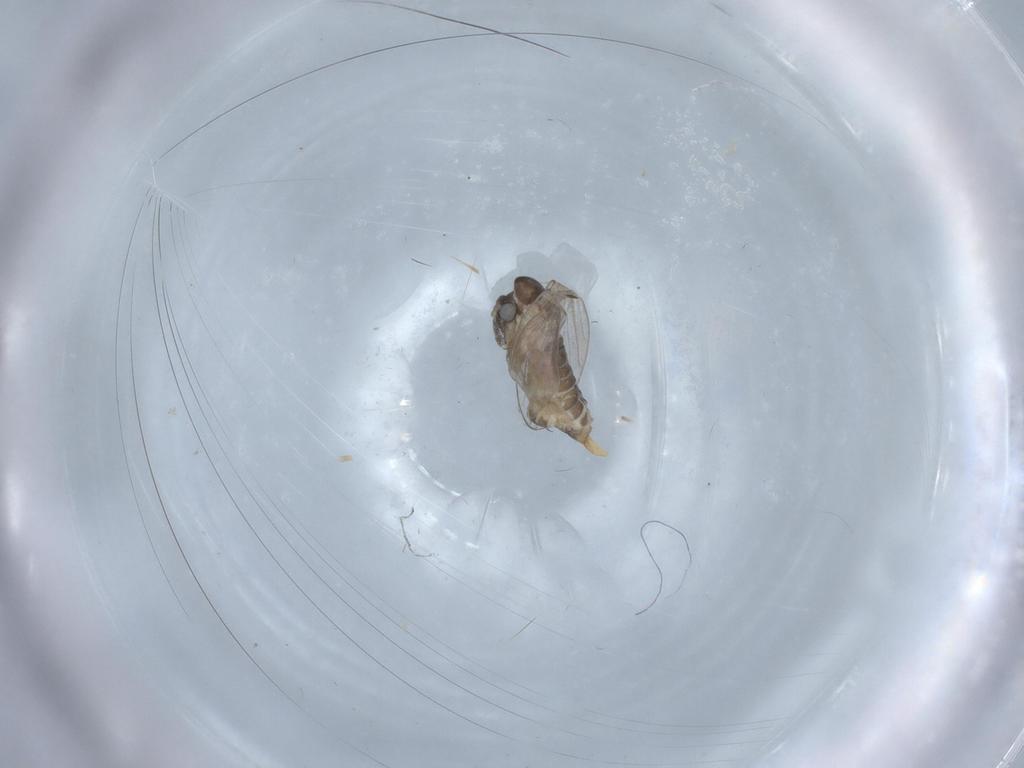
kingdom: Animalia
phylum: Arthropoda
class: Insecta
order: Diptera
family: Psychodidae
